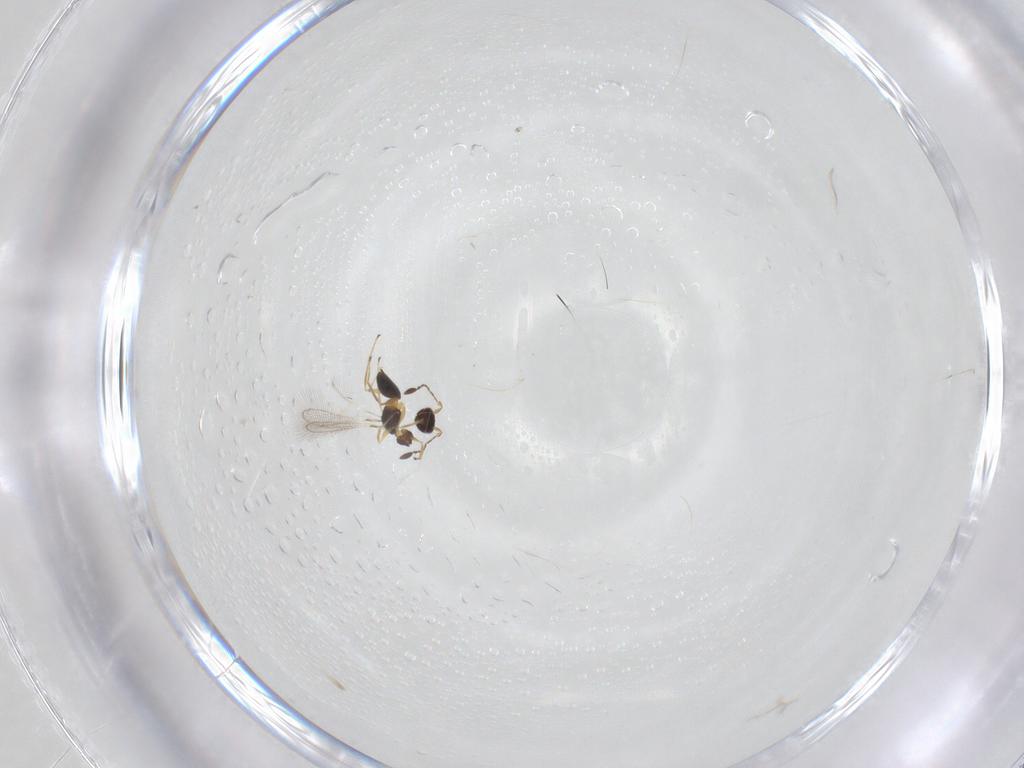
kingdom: Animalia
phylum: Arthropoda
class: Insecta
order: Hymenoptera
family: Mymaridae
